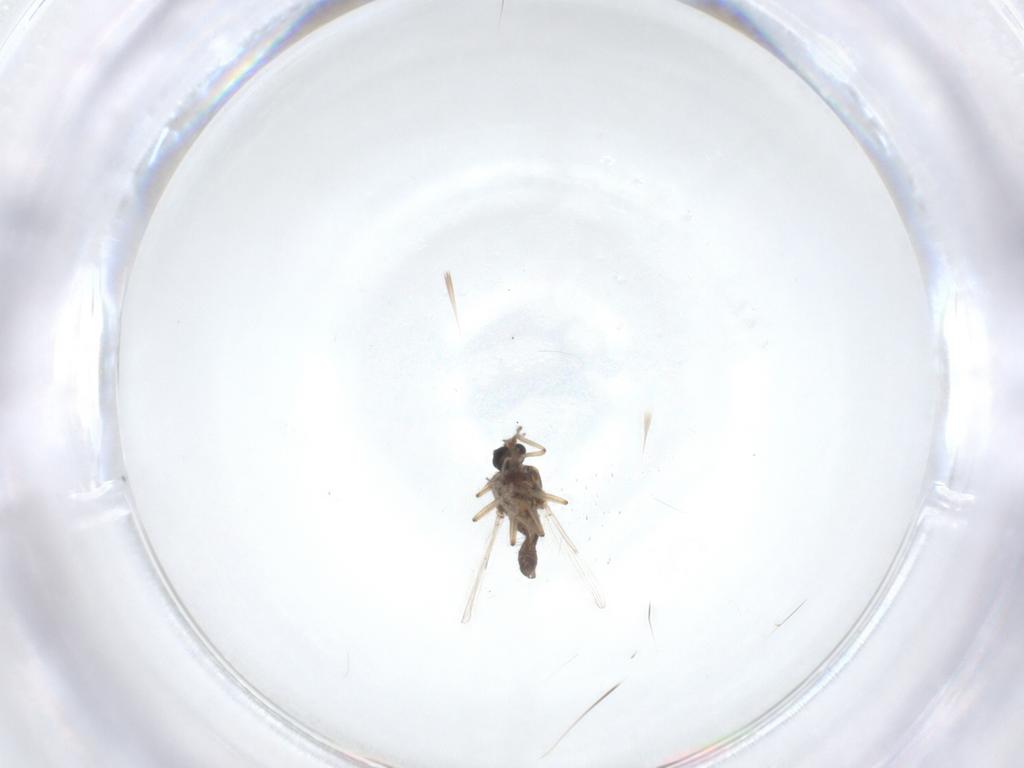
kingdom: Animalia
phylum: Arthropoda
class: Insecta
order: Diptera
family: Ceratopogonidae
